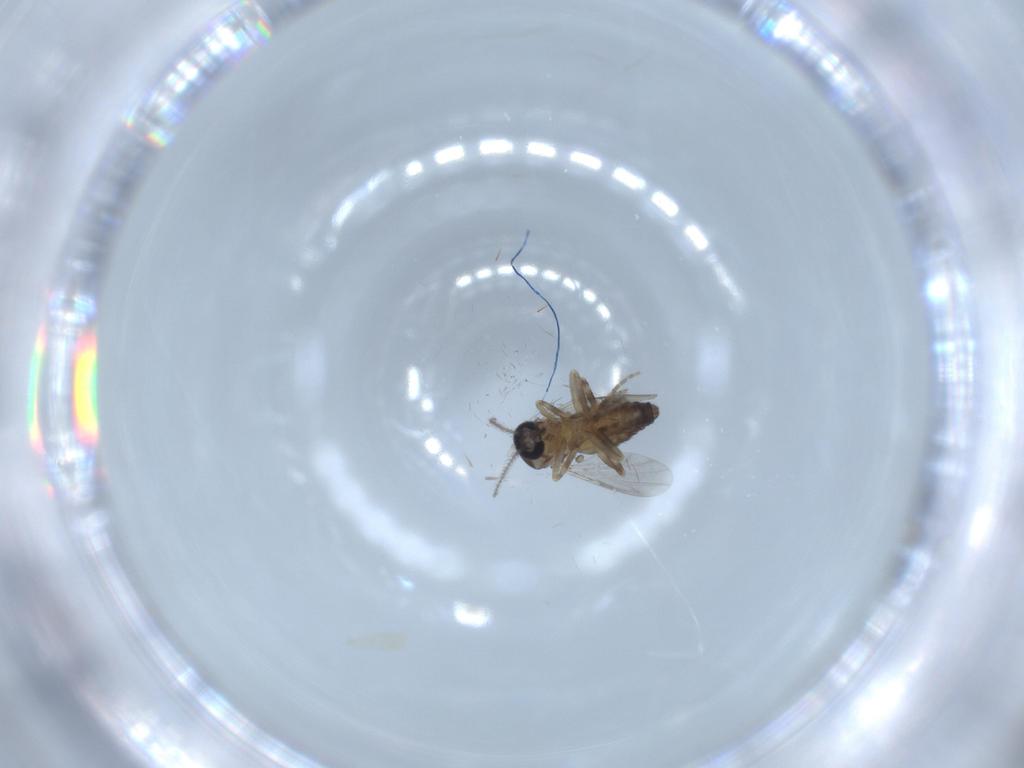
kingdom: Animalia
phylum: Arthropoda
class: Insecta
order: Diptera
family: Ceratopogonidae
